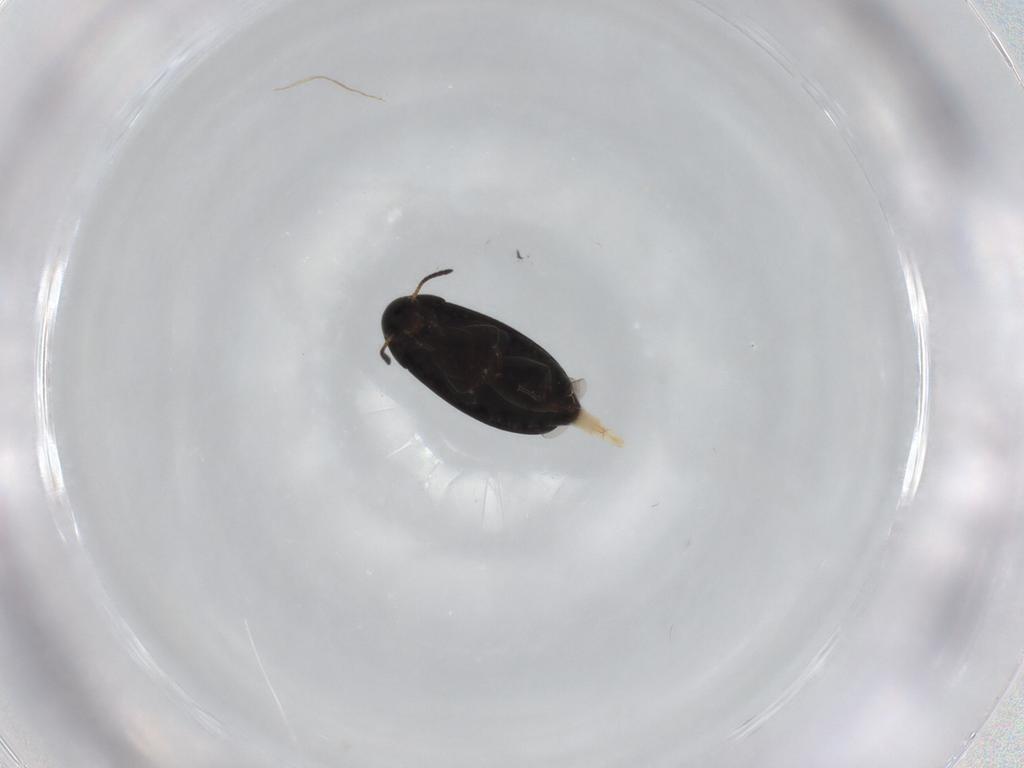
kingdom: Animalia
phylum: Arthropoda
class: Insecta
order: Coleoptera
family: Scraptiidae
